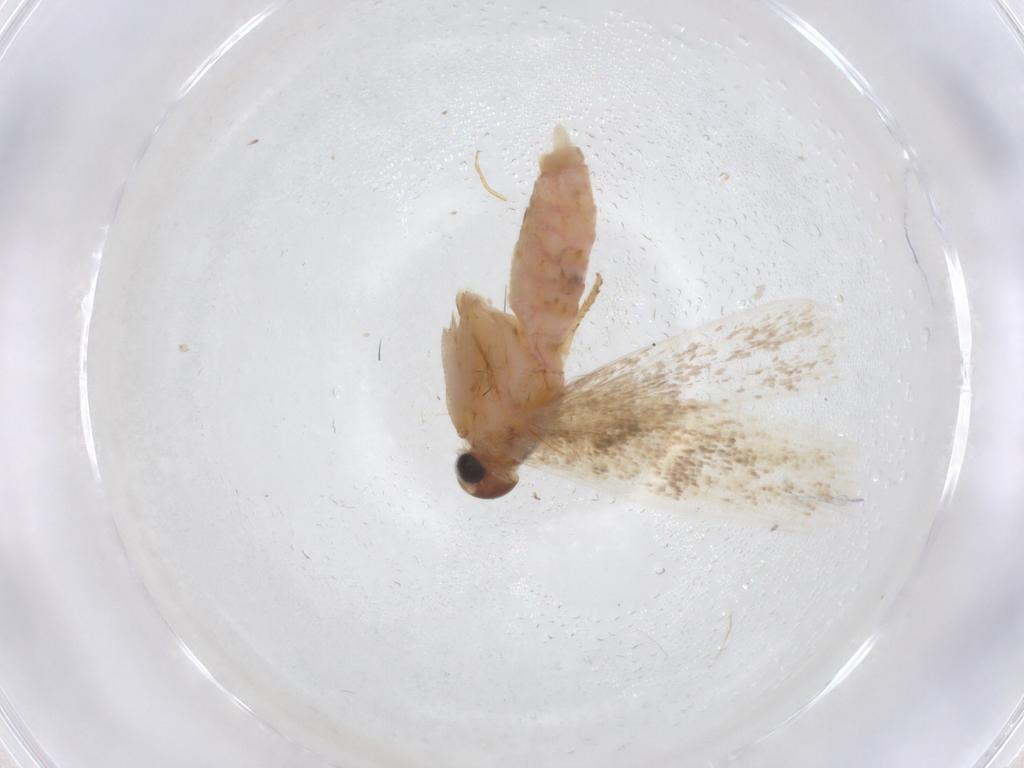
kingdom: Animalia
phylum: Arthropoda
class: Insecta
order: Lepidoptera
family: Gelechiidae
